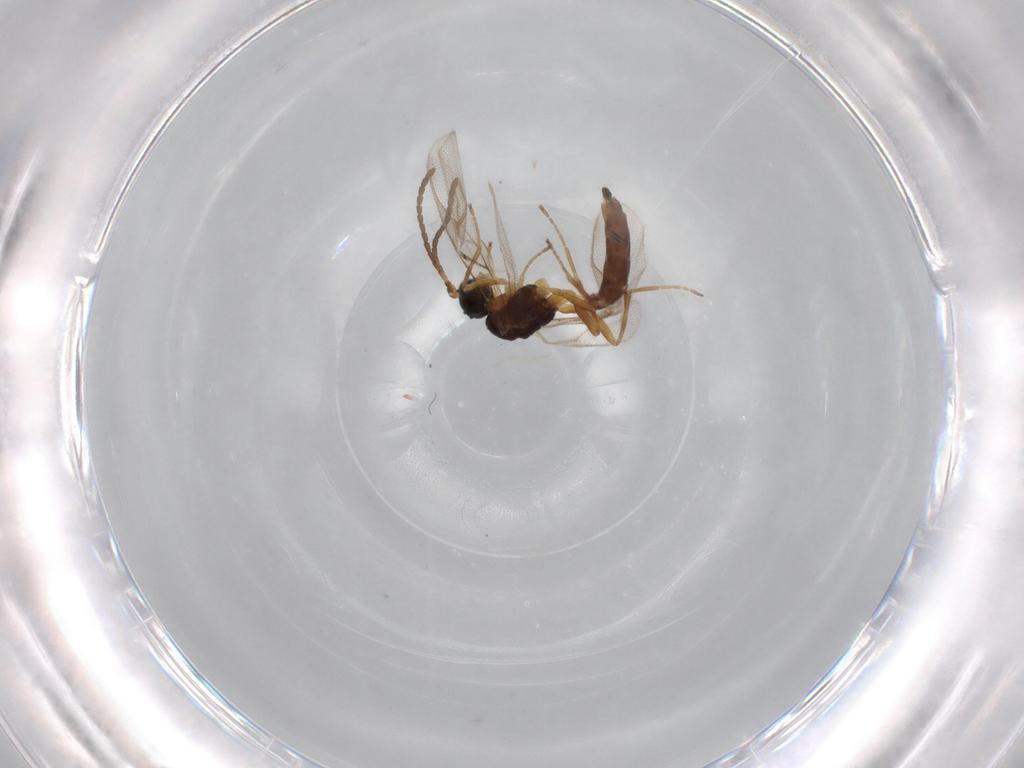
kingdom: Animalia
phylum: Arthropoda
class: Insecta
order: Hymenoptera
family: Braconidae
